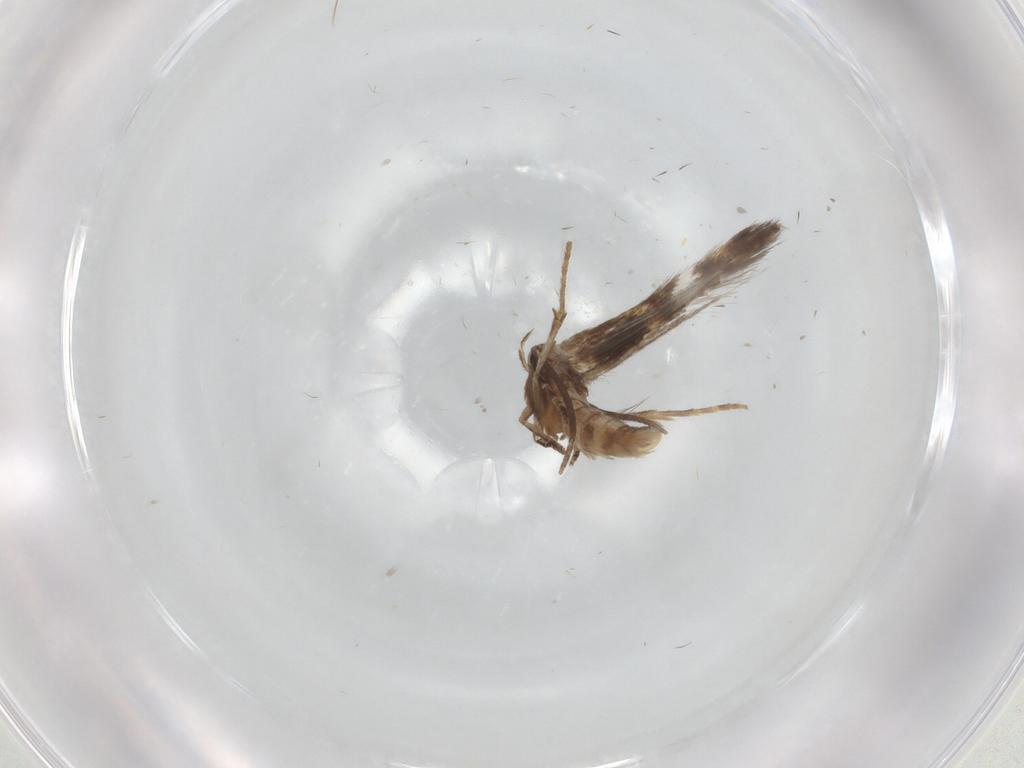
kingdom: Animalia
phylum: Arthropoda
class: Insecta
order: Lepidoptera
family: Elachistidae
